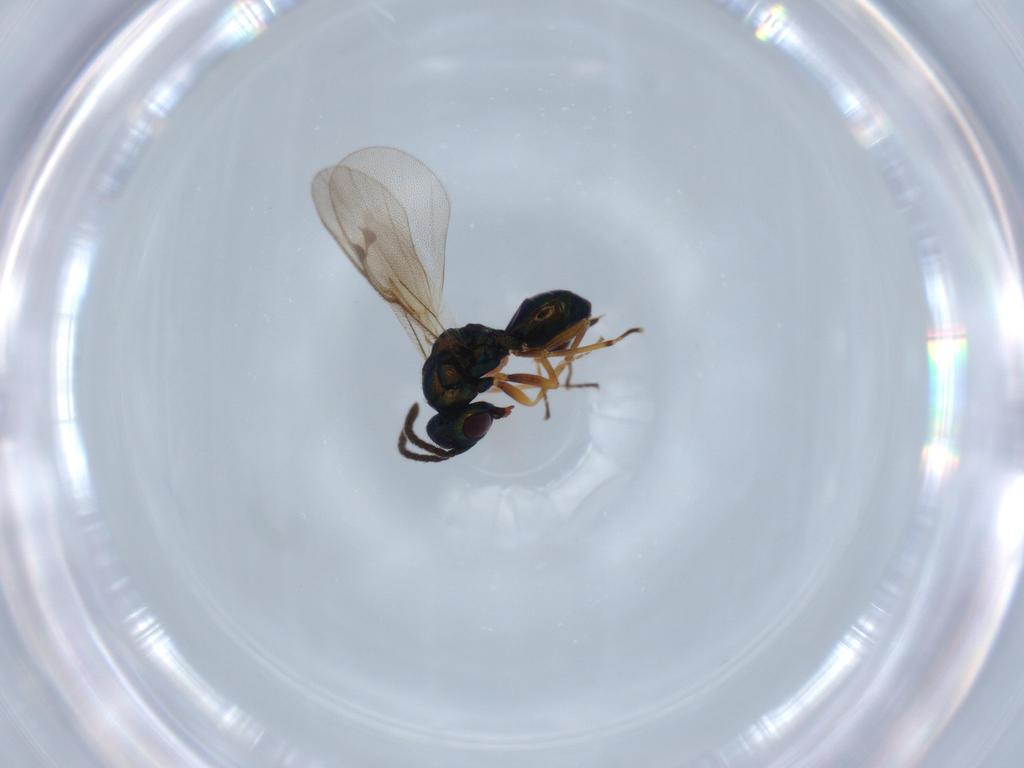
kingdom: Animalia
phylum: Arthropoda
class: Insecta
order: Hymenoptera
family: Pteromalidae
